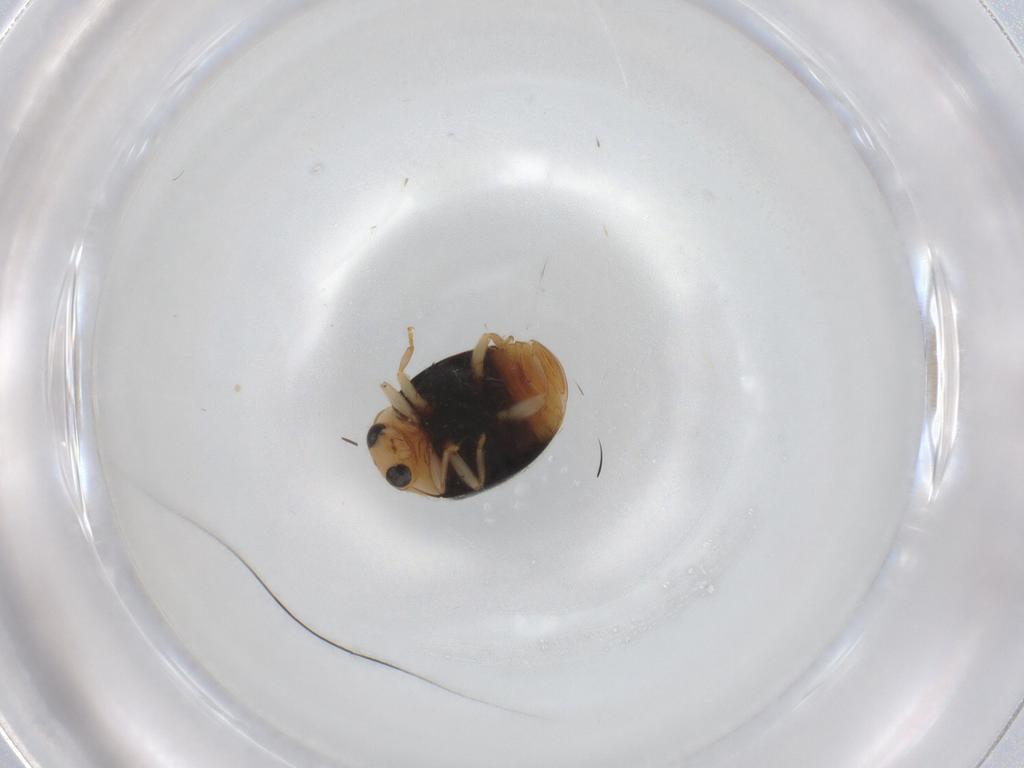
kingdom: Animalia
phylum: Arthropoda
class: Insecta
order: Coleoptera
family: Coccinellidae
